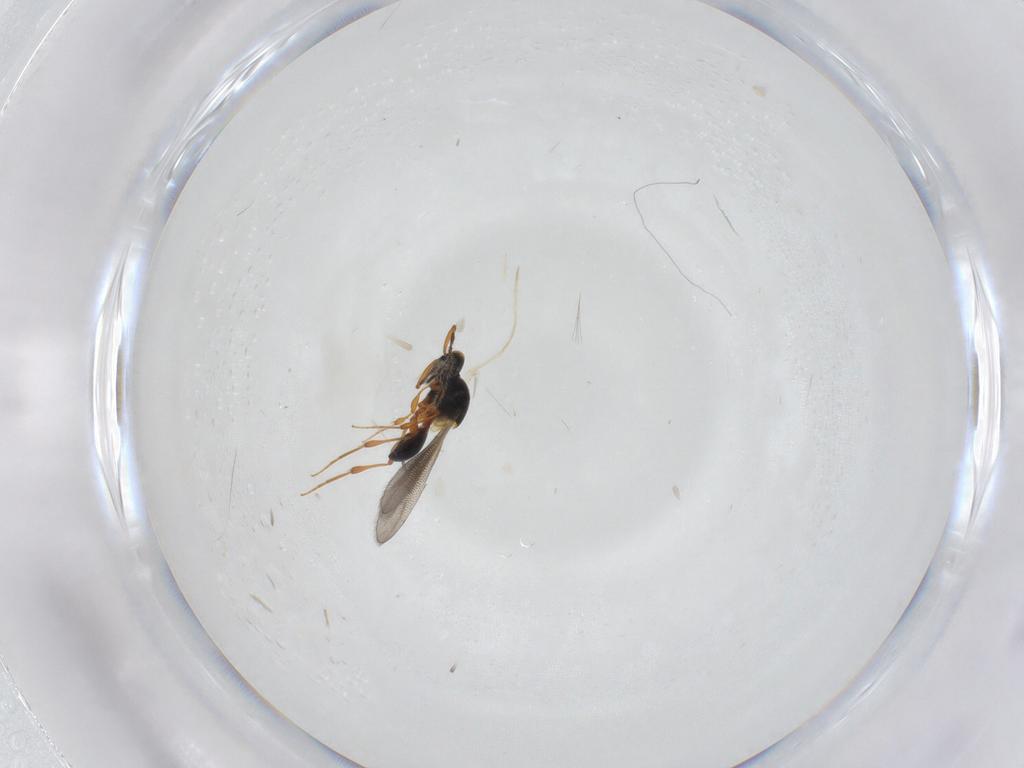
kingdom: Animalia
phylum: Arthropoda
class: Insecta
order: Hymenoptera
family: Platygastridae
